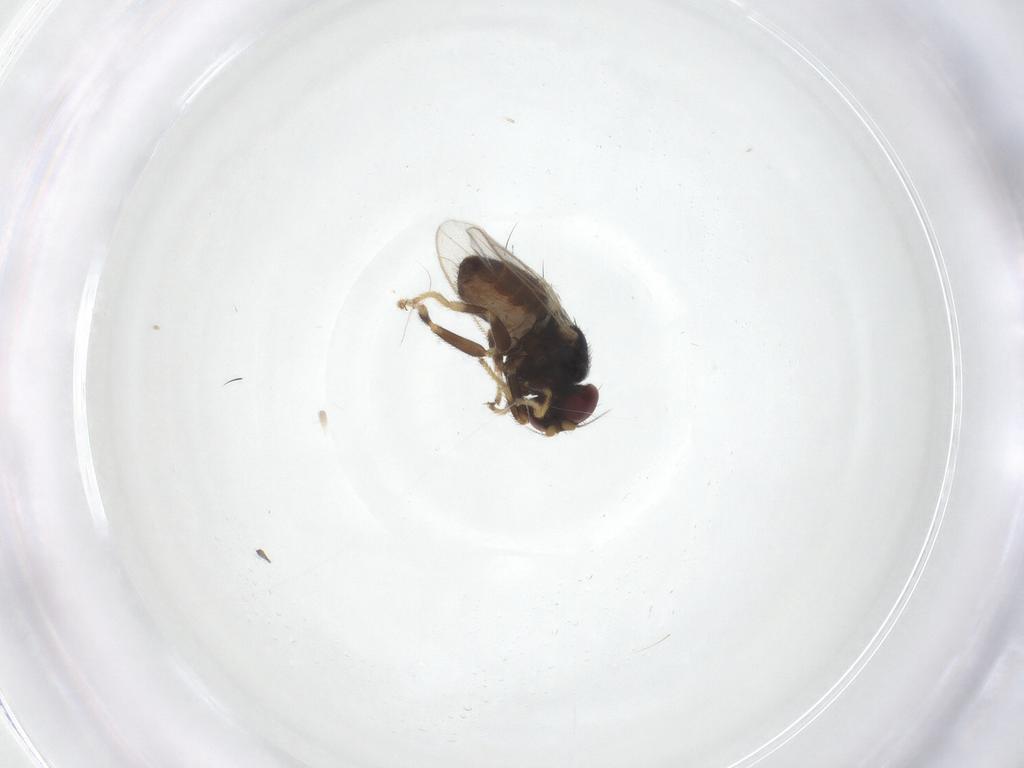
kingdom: Animalia
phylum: Arthropoda
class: Insecta
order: Diptera
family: Chloropidae
